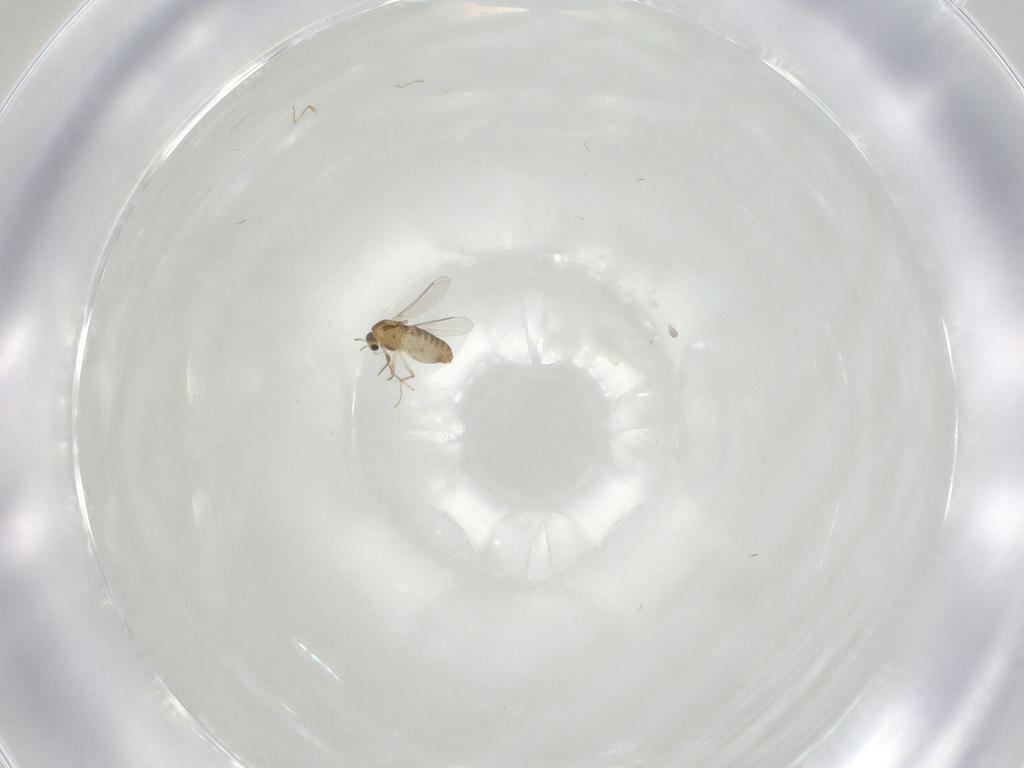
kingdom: Animalia
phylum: Arthropoda
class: Insecta
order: Diptera
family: Chironomidae
